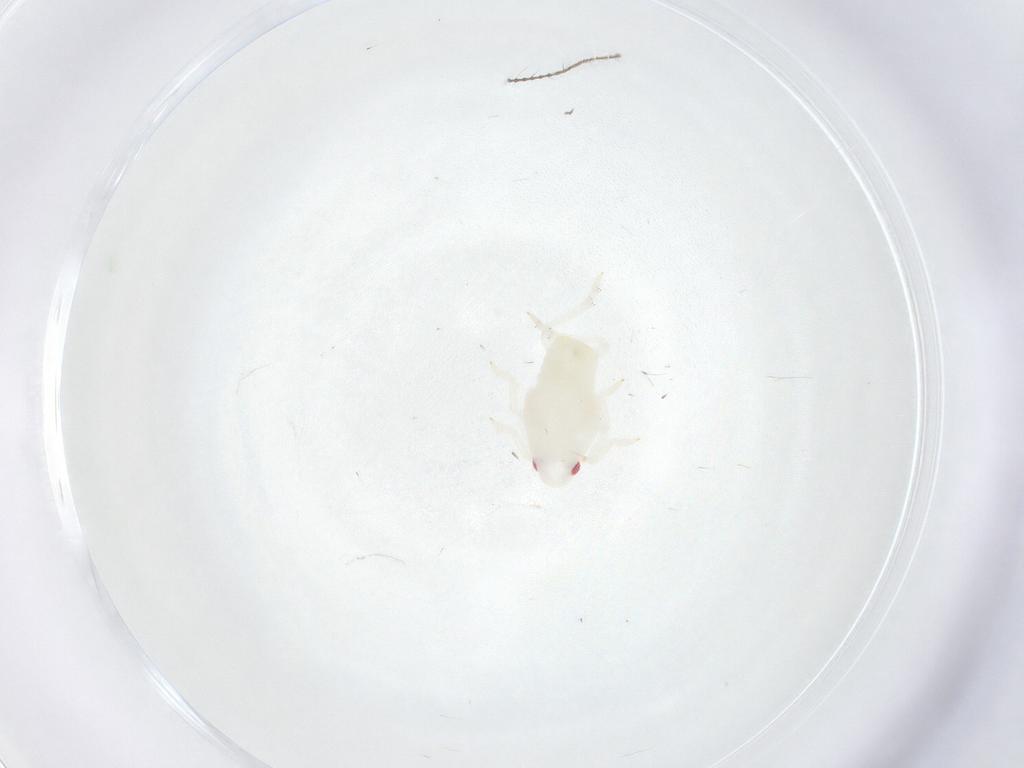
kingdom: Animalia
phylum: Arthropoda
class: Insecta
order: Hemiptera
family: Flatidae
